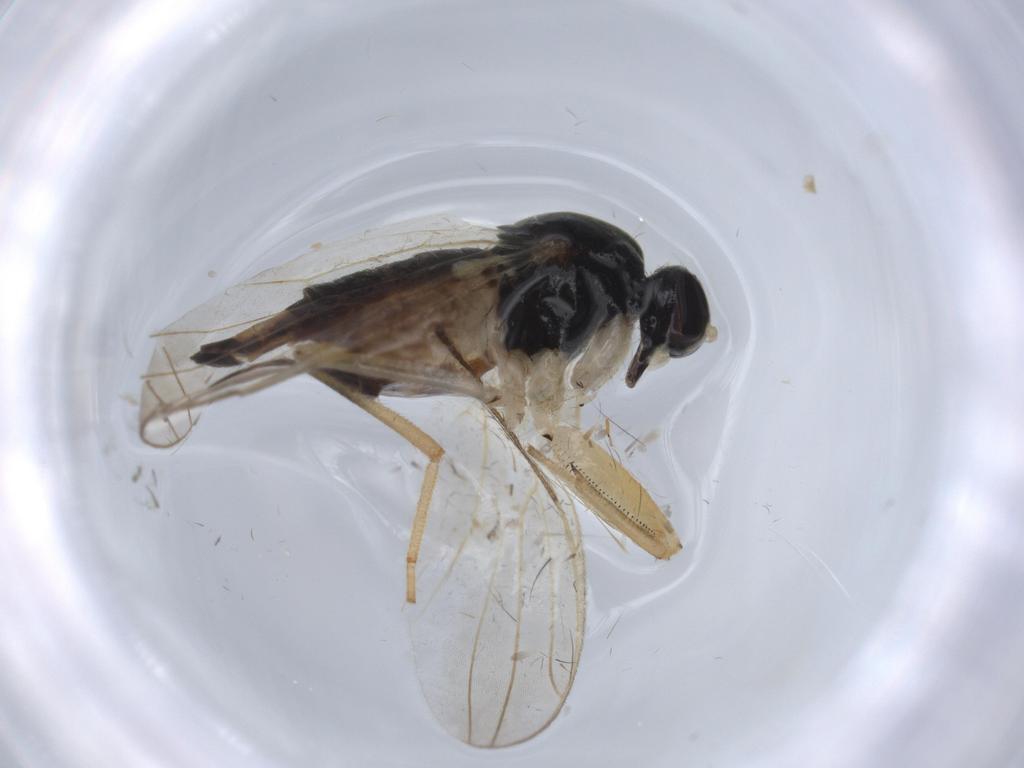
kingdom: Animalia
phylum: Arthropoda
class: Insecta
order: Diptera
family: Hybotidae
